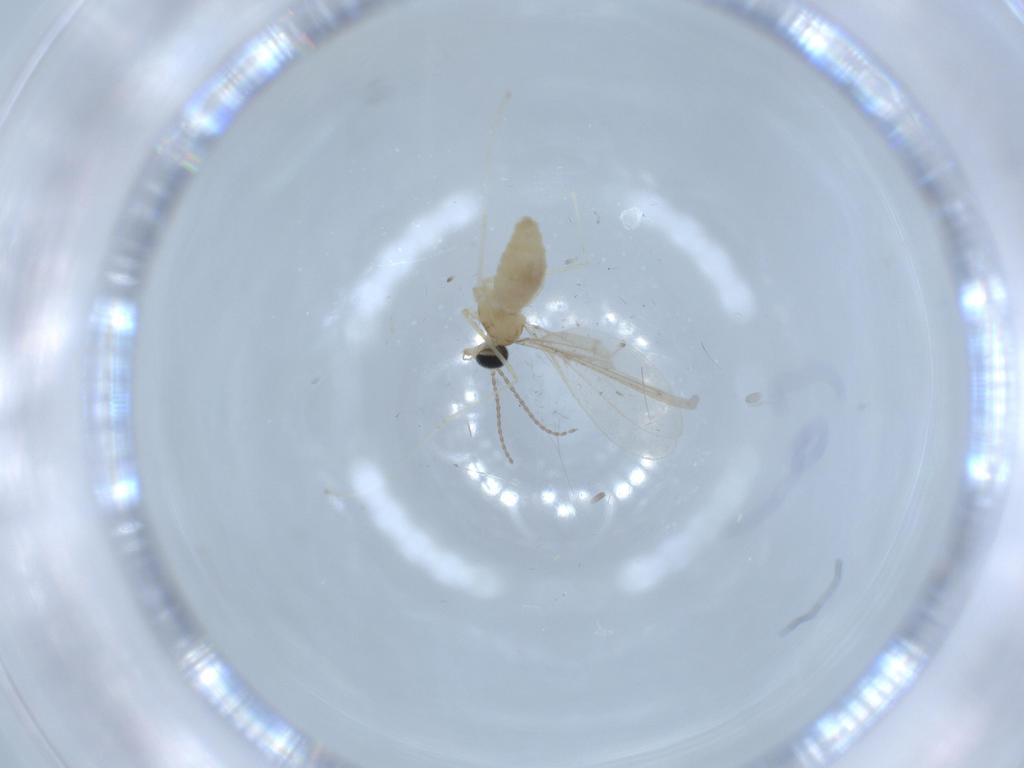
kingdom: Animalia
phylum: Arthropoda
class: Insecta
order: Diptera
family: Cecidomyiidae
